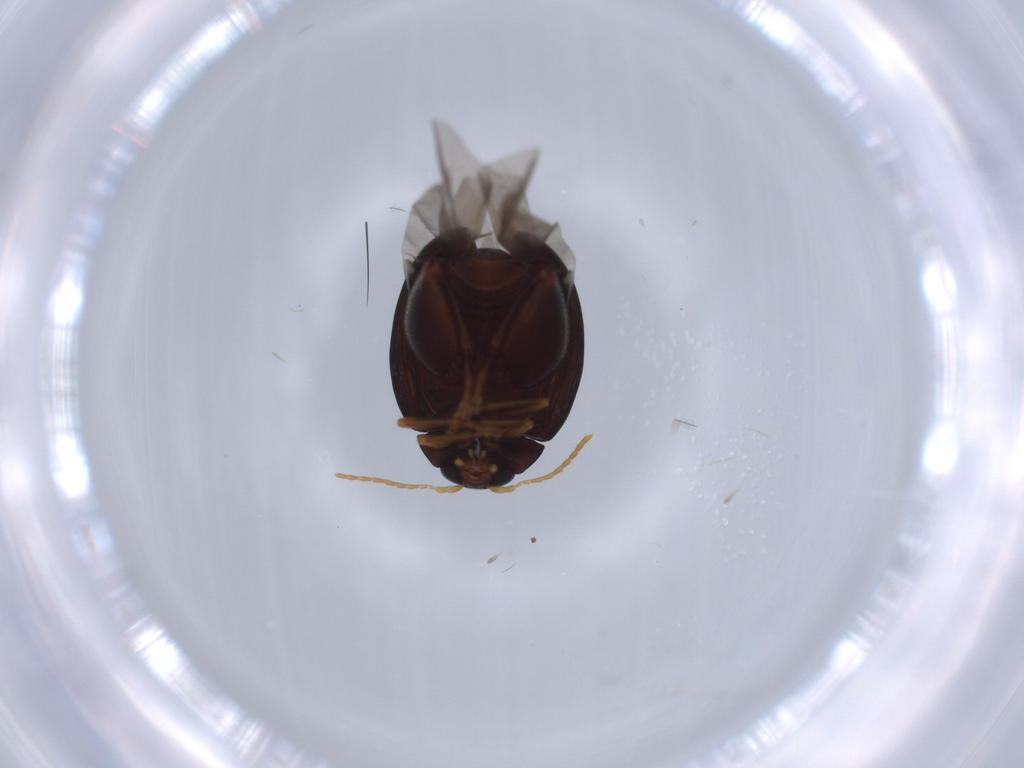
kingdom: Animalia
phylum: Arthropoda
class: Insecta
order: Coleoptera
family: Chrysomelidae
